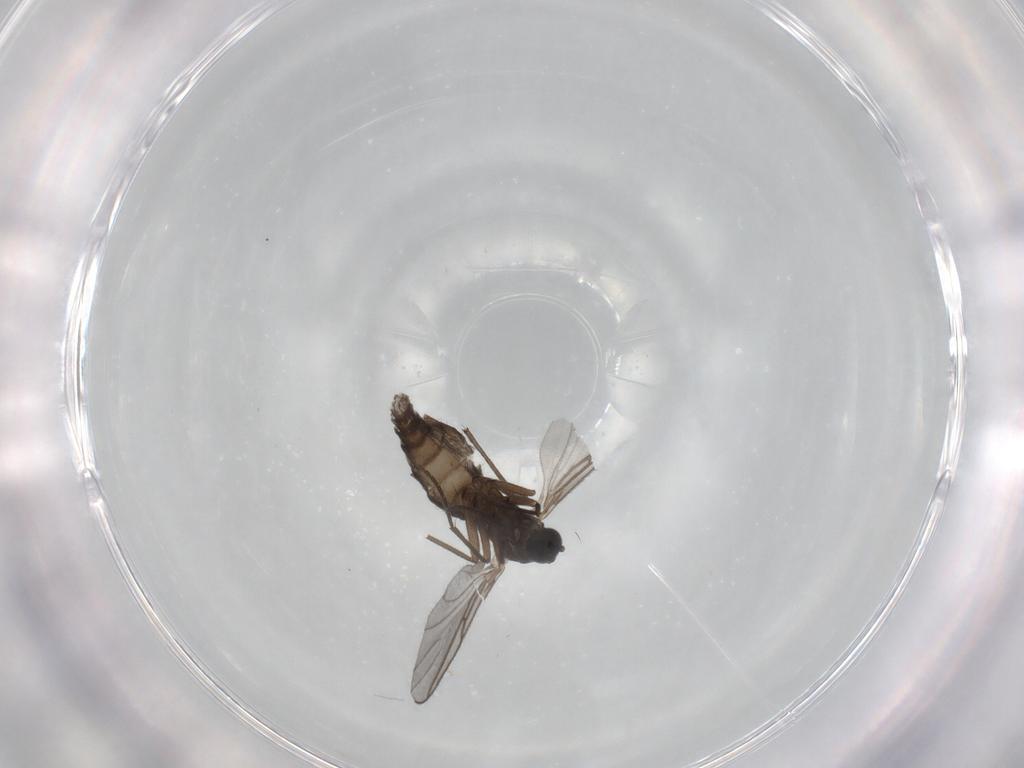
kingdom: Animalia
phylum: Arthropoda
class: Insecta
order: Diptera
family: Sciaridae
